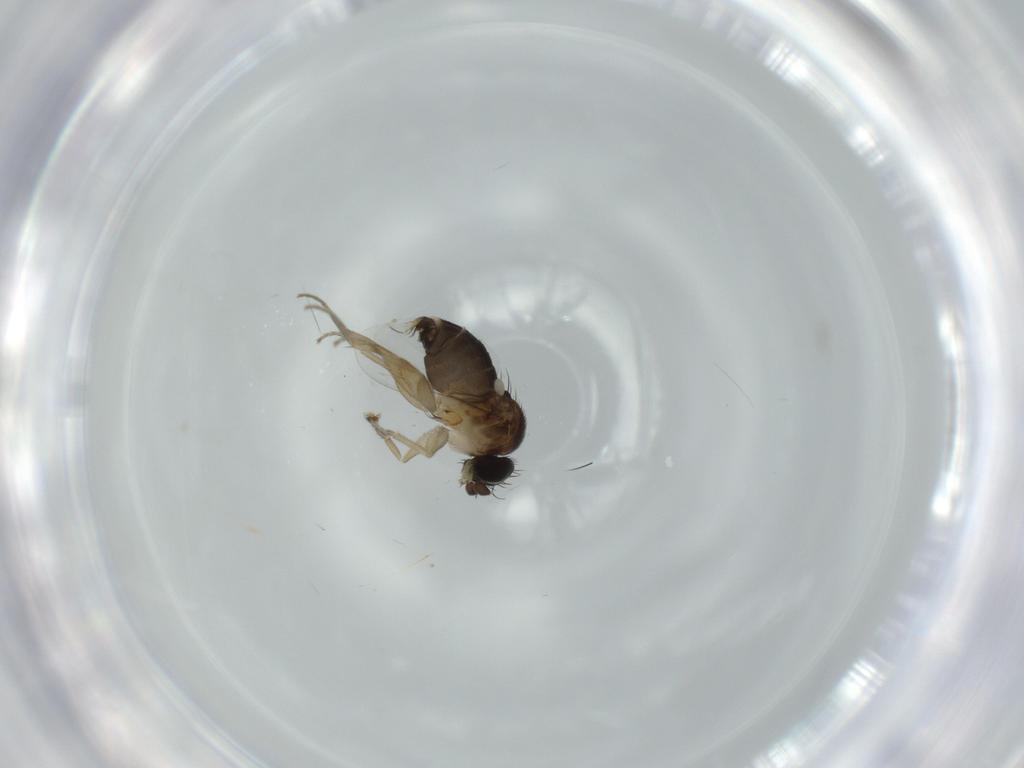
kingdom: Animalia
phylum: Arthropoda
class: Insecta
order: Diptera
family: Phoridae
